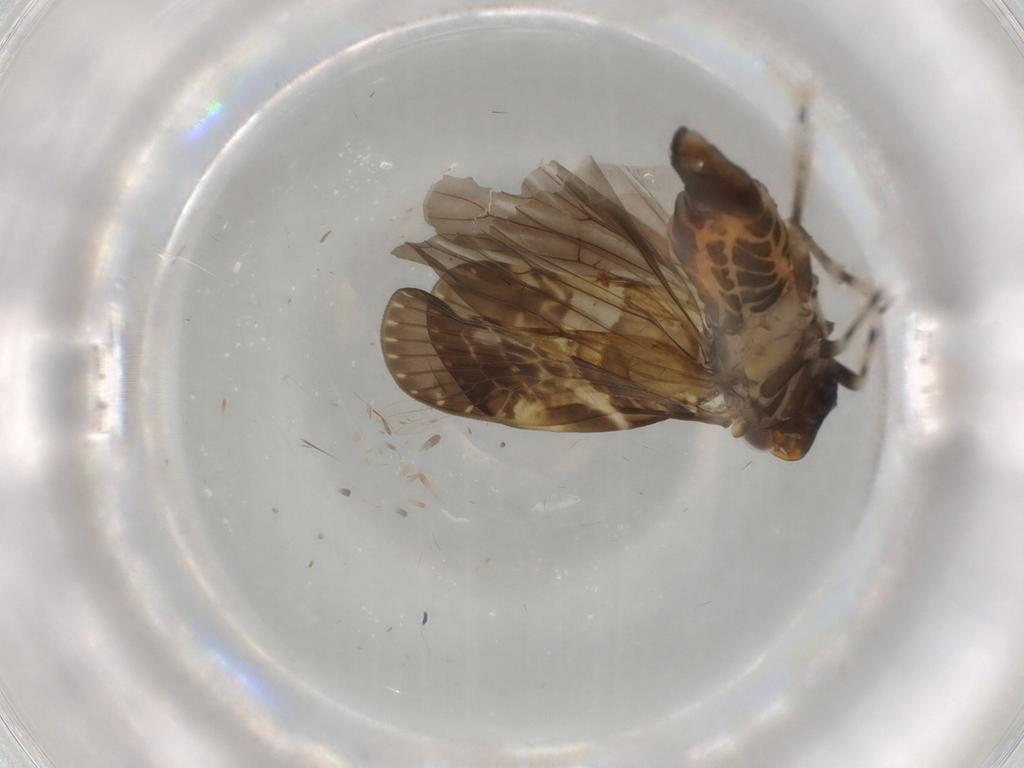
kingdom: Animalia
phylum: Arthropoda
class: Insecta
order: Hemiptera
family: Cixiidae
